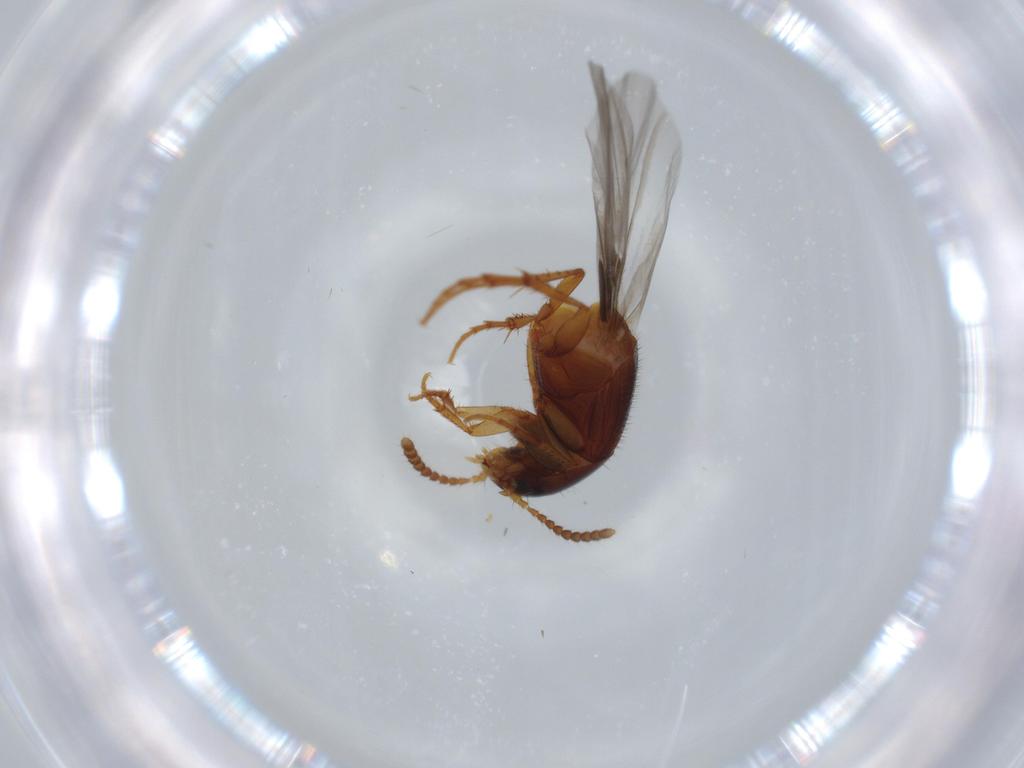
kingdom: Animalia
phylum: Arthropoda
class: Insecta
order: Coleoptera
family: Staphylinidae
